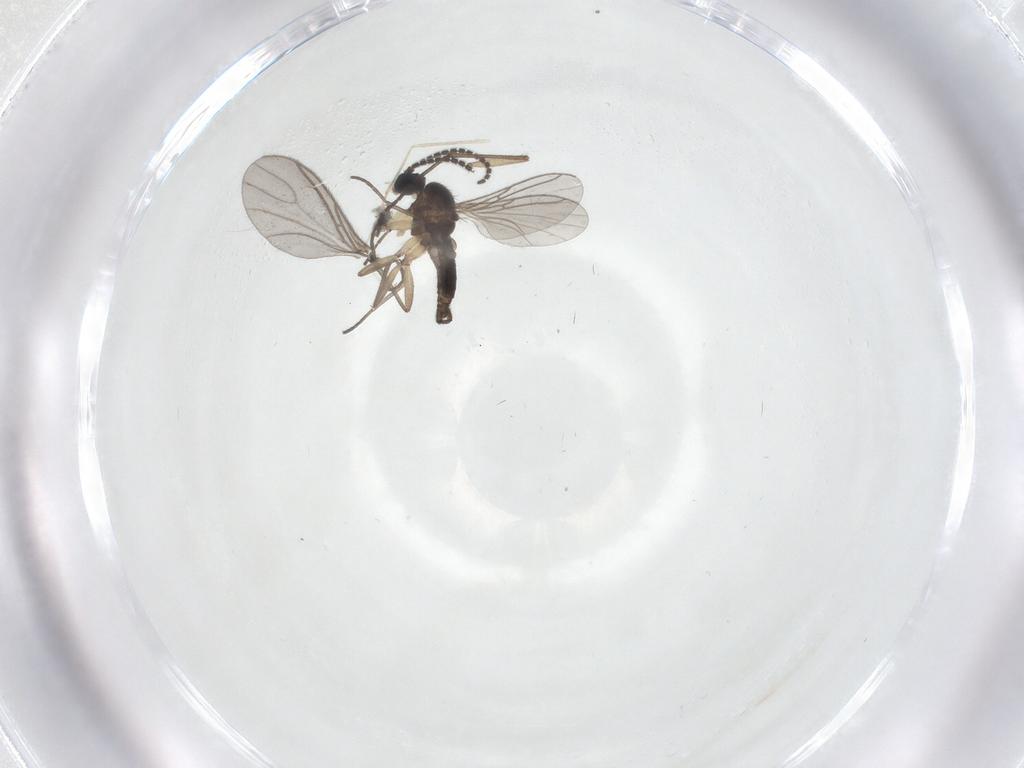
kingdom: Animalia
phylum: Arthropoda
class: Insecta
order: Diptera
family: Sciaridae
